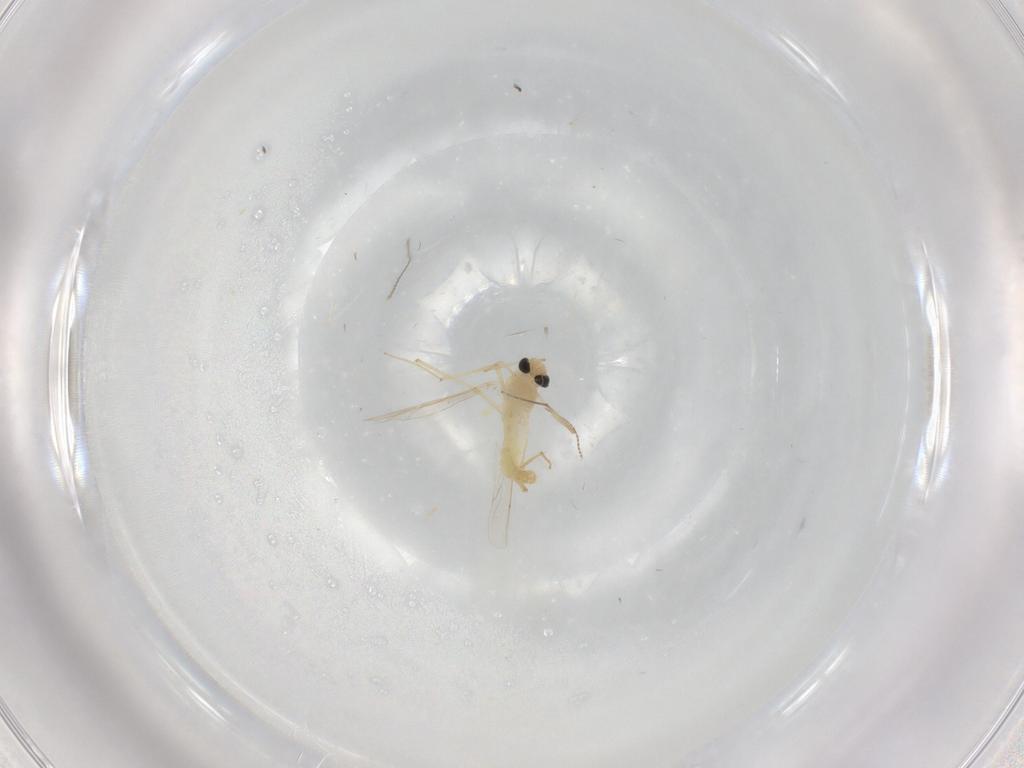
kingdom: Animalia
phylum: Arthropoda
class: Insecta
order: Diptera
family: Chironomidae
